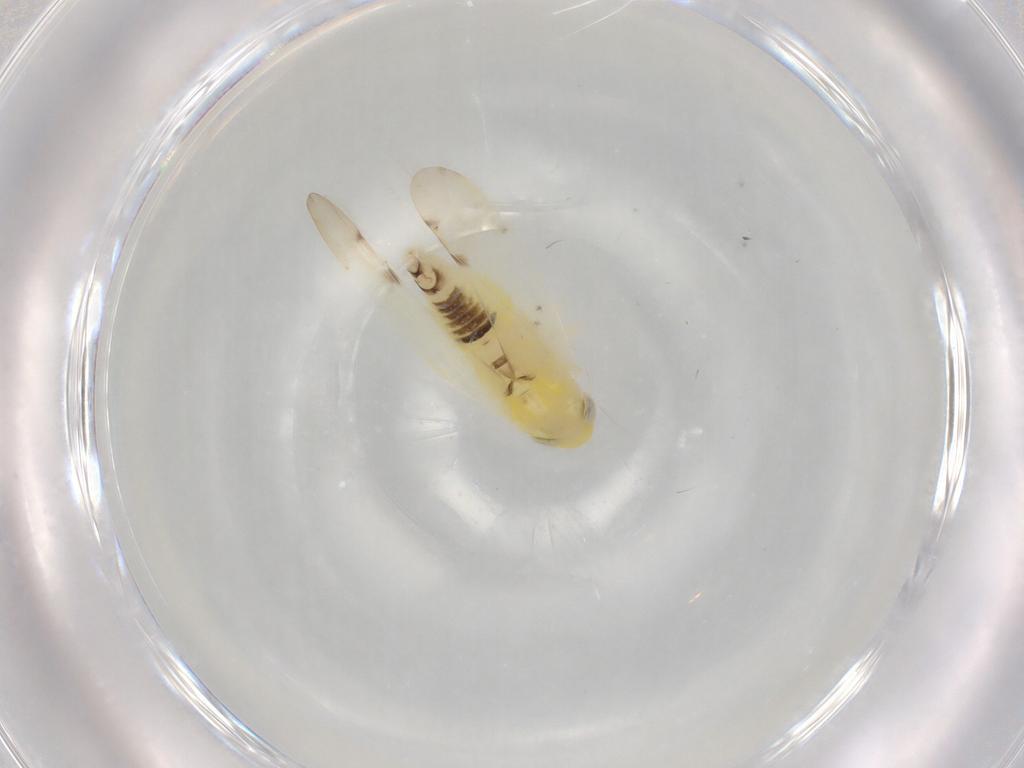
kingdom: Animalia
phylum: Arthropoda
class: Insecta
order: Hemiptera
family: Cicadellidae
